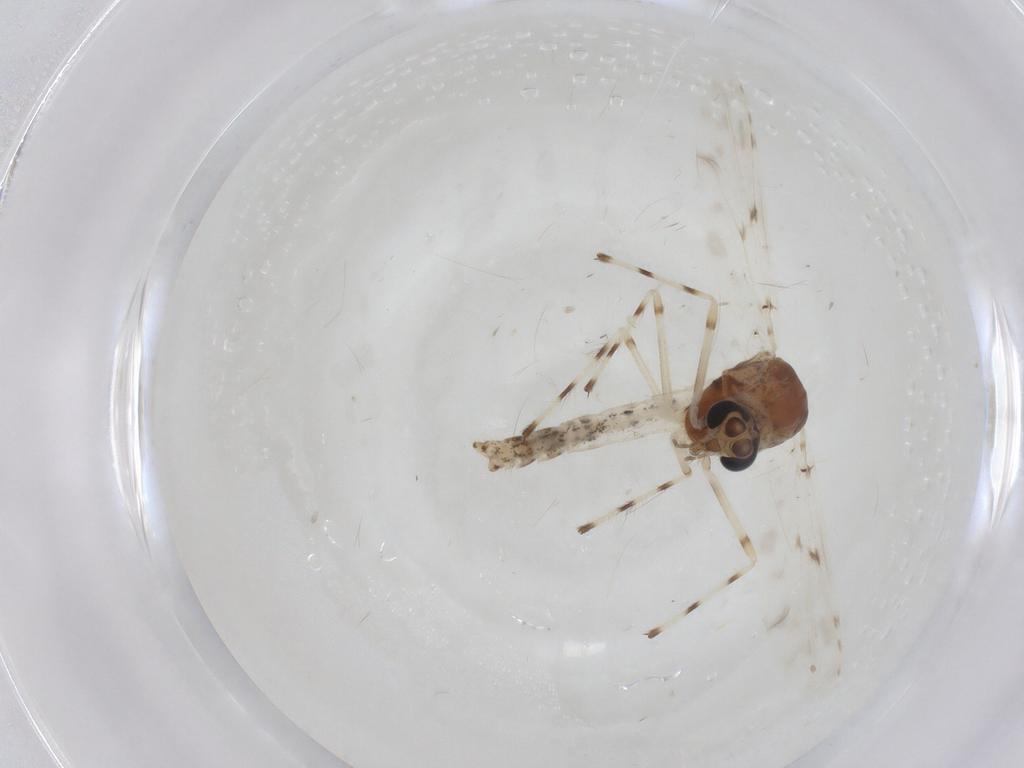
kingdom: Animalia
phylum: Arthropoda
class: Insecta
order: Diptera
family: Chironomidae
